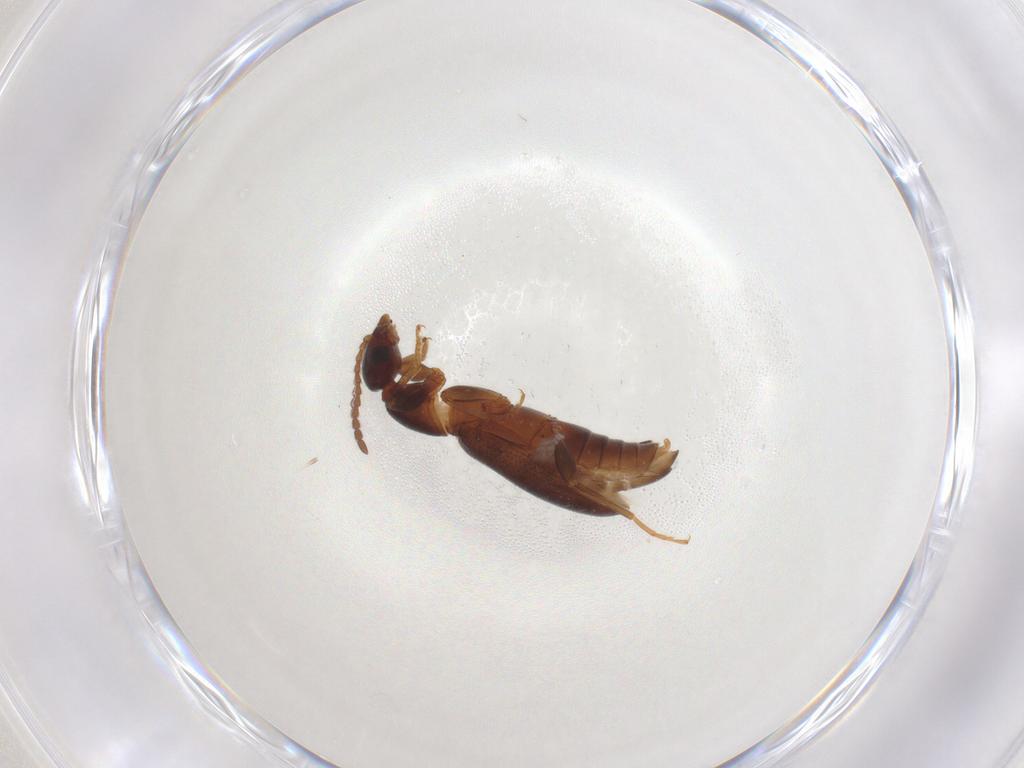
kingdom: Animalia
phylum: Arthropoda
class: Insecta
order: Coleoptera
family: Anthicidae
